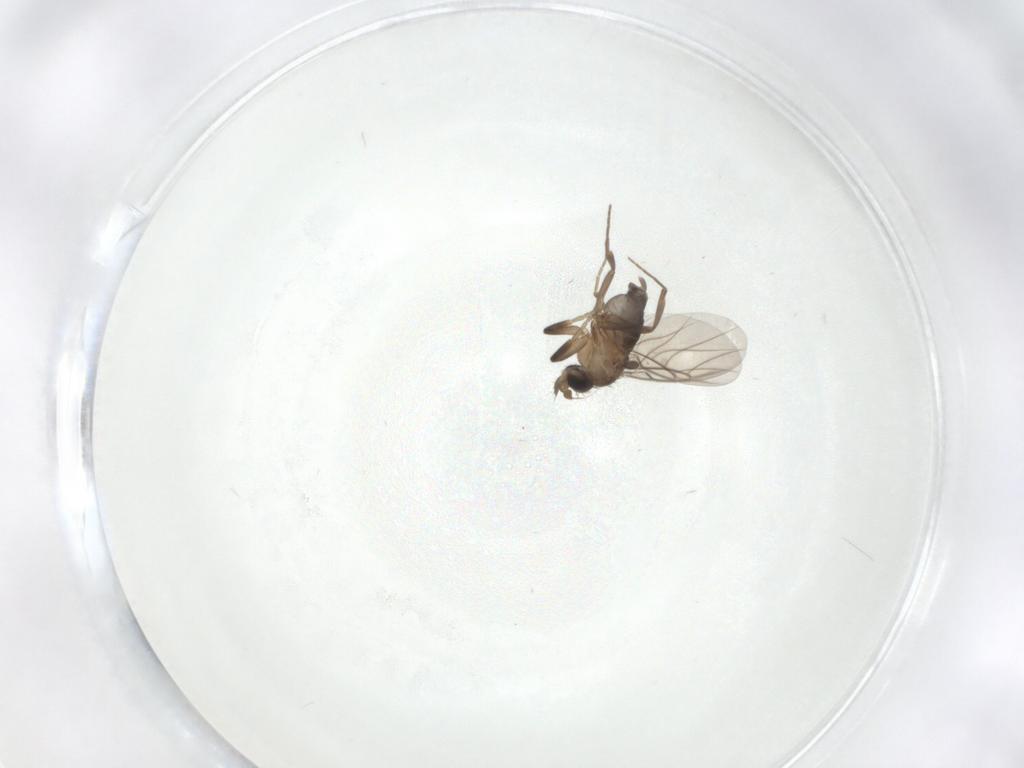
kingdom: Animalia
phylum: Arthropoda
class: Insecta
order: Diptera
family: Phoridae
